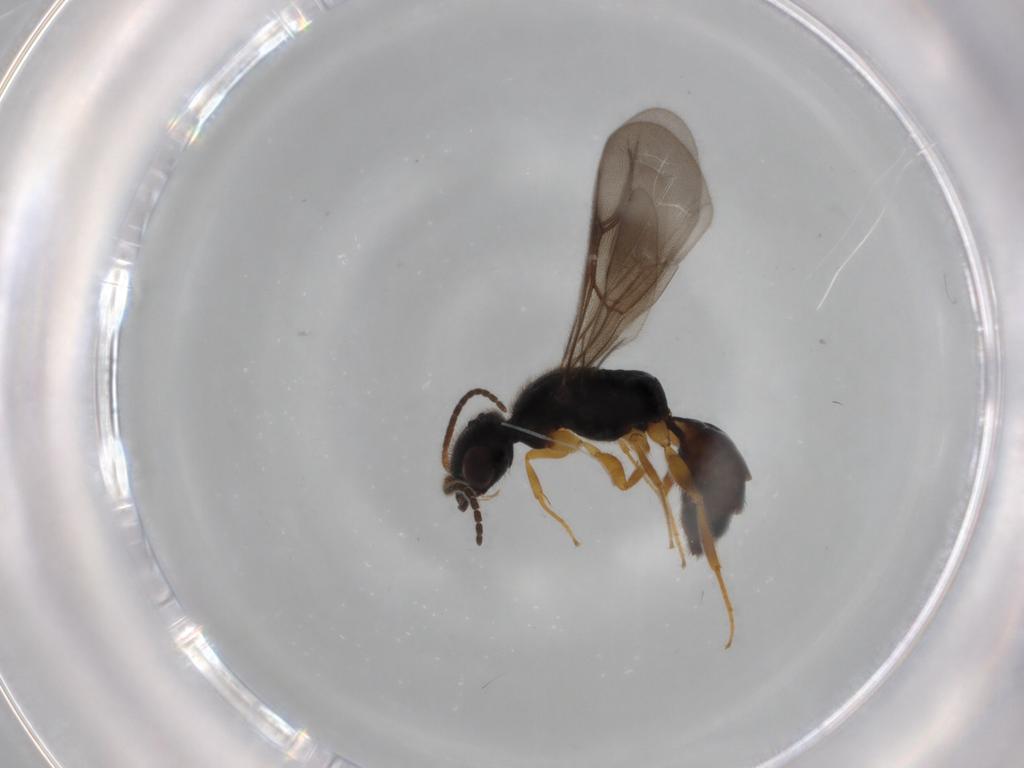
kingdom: Animalia
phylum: Arthropoda
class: Insecta
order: Hymenoptera
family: Bethylidae
